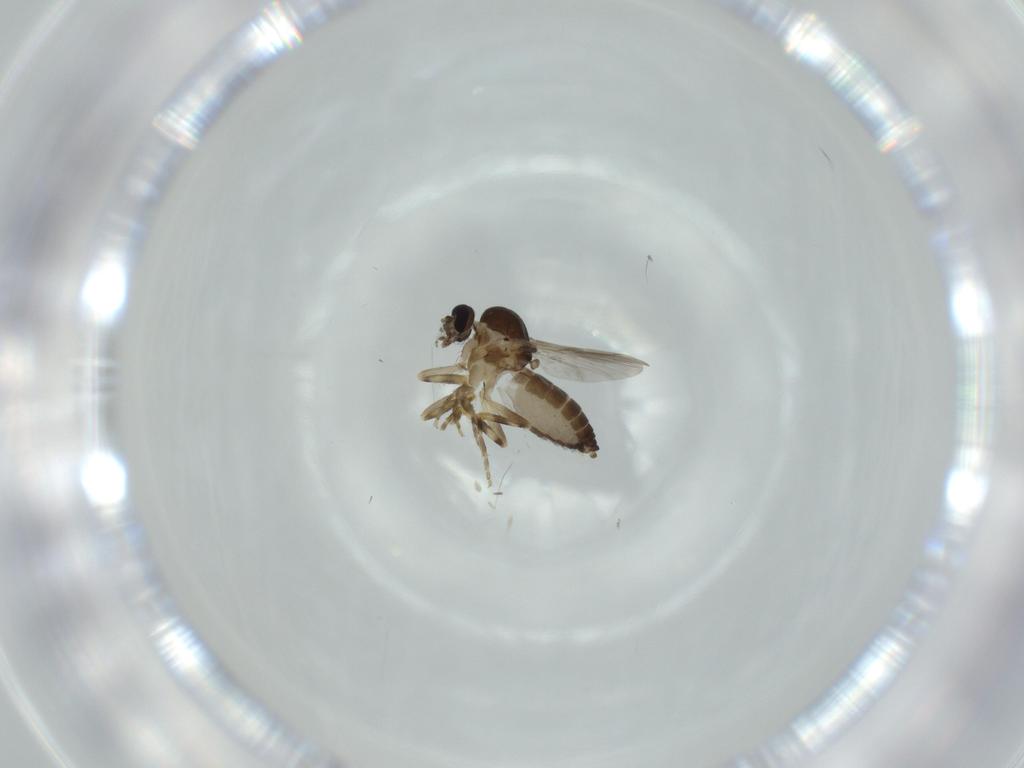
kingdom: Animalia
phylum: Arthropoda
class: Insecta
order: Diptera
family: Ceratopogonidae
